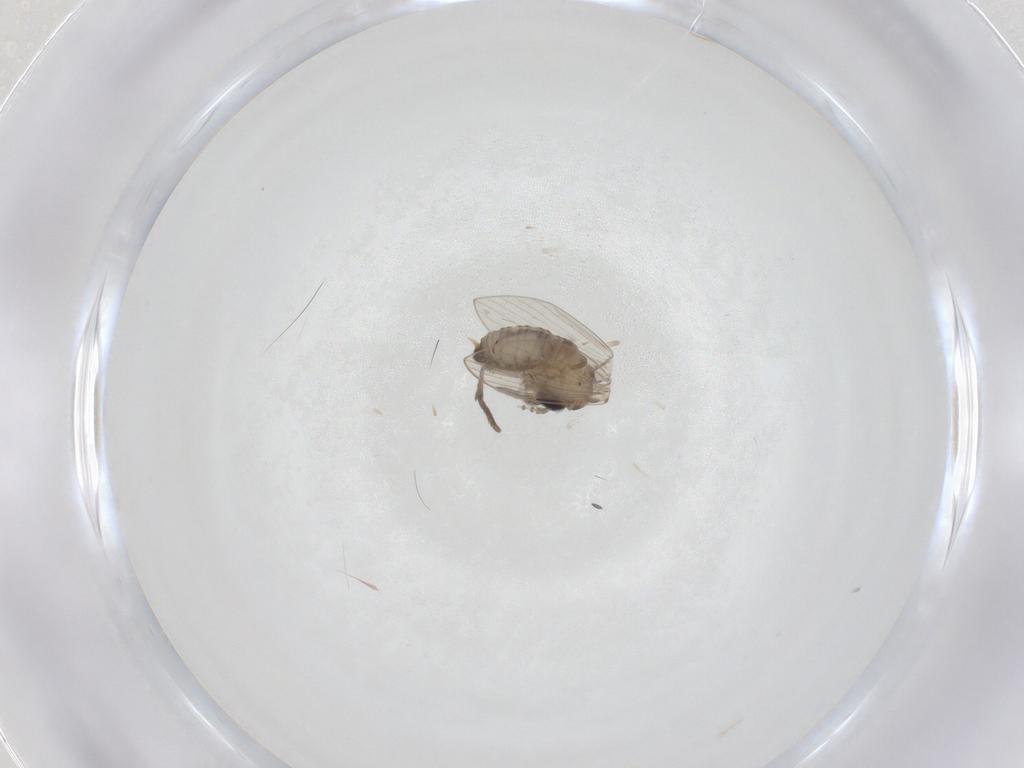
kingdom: Animalia
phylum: Arthropoda
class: Insecta
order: Diptera
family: Psychodidae
